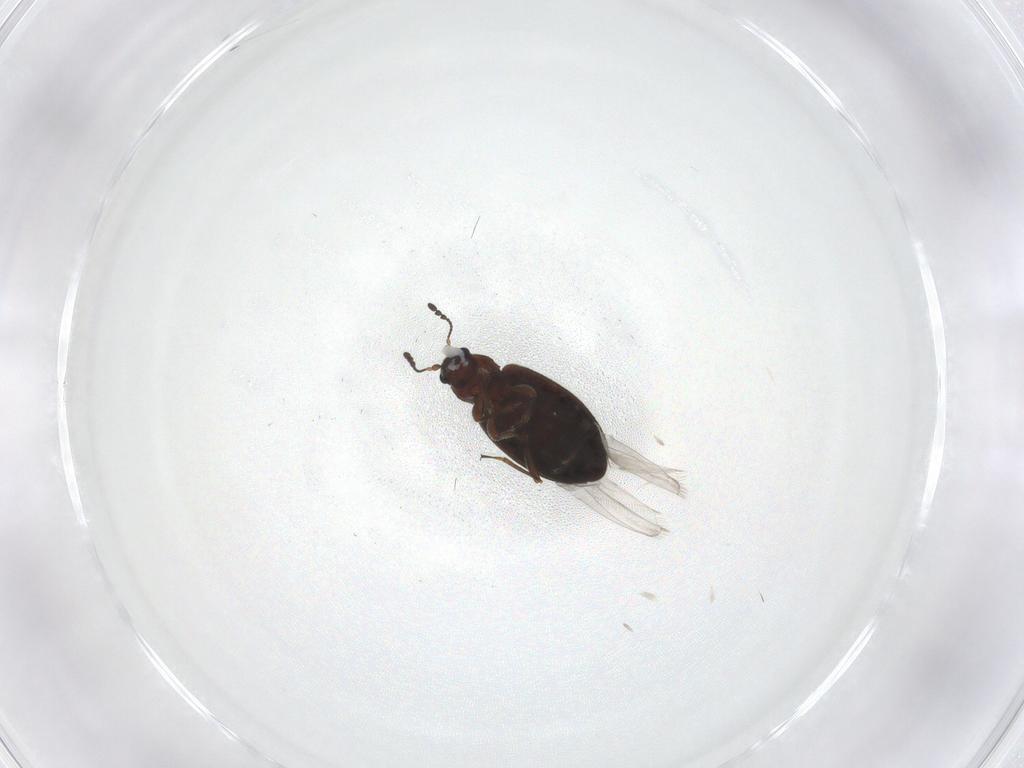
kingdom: Animalia
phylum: Arthropoda
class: Insecta
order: Coleoptera
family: Latridiidae
